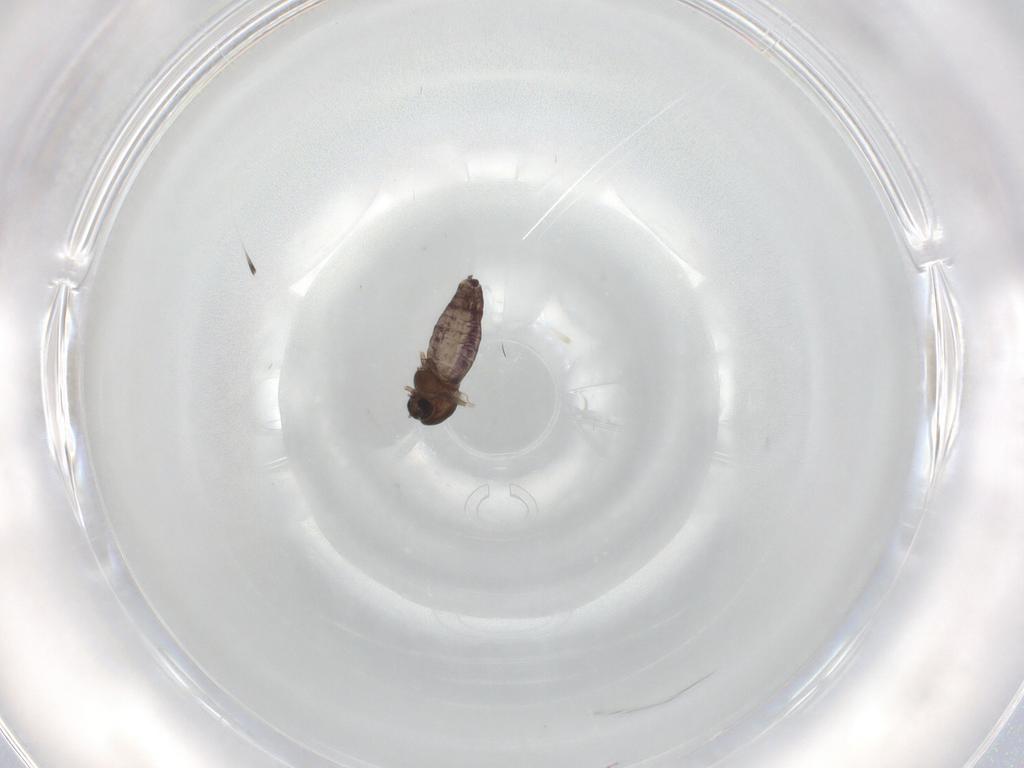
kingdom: Animalia
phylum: Arthropoda
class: Insecta
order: Diptera
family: Chironomidae
